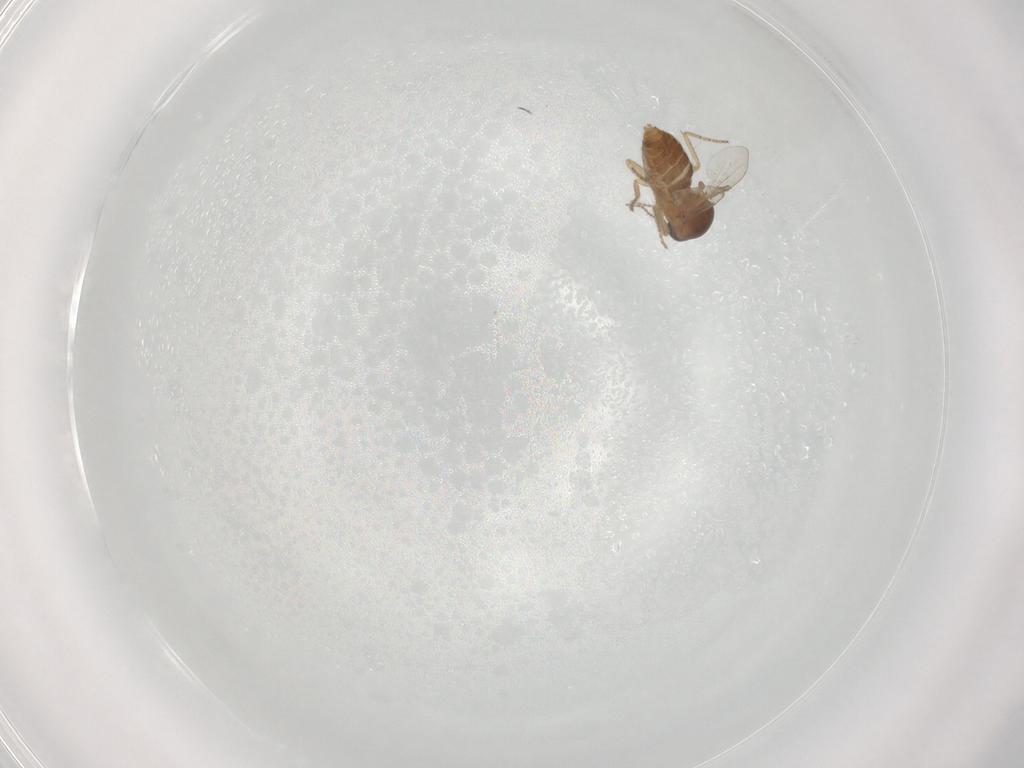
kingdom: Animalia
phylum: Arthropoda
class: Insecta
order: Diptera
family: Ceratopogonidae
